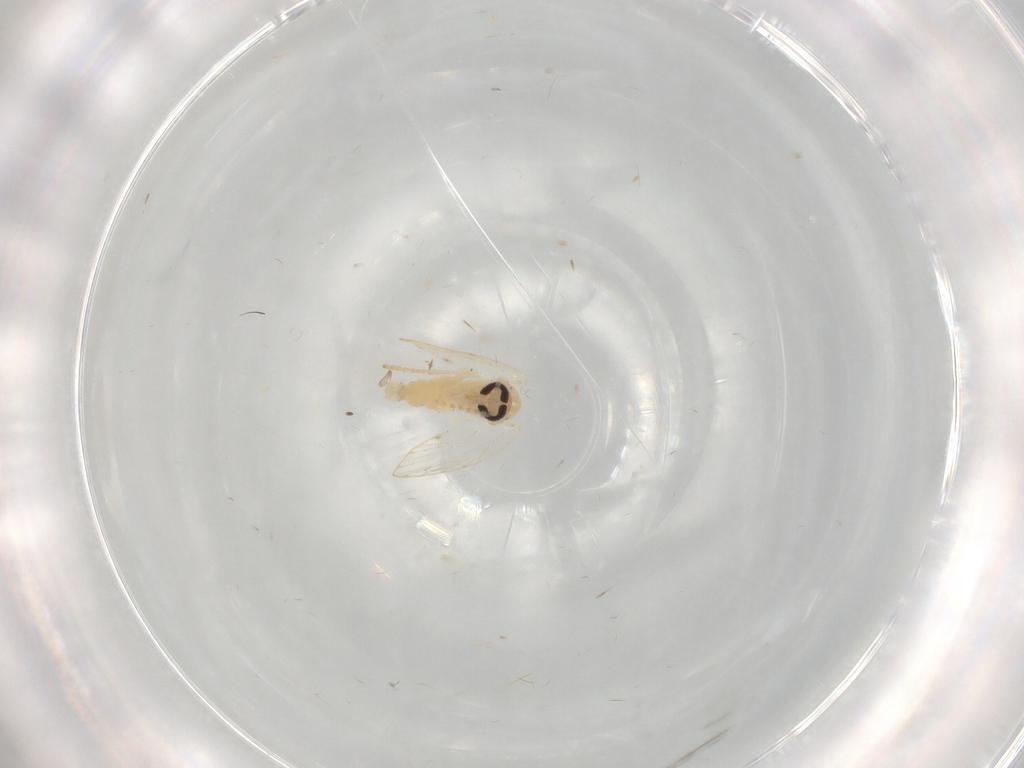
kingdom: Animalia
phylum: Arthropoda
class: Insecta
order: Diptera
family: Psychodidae
